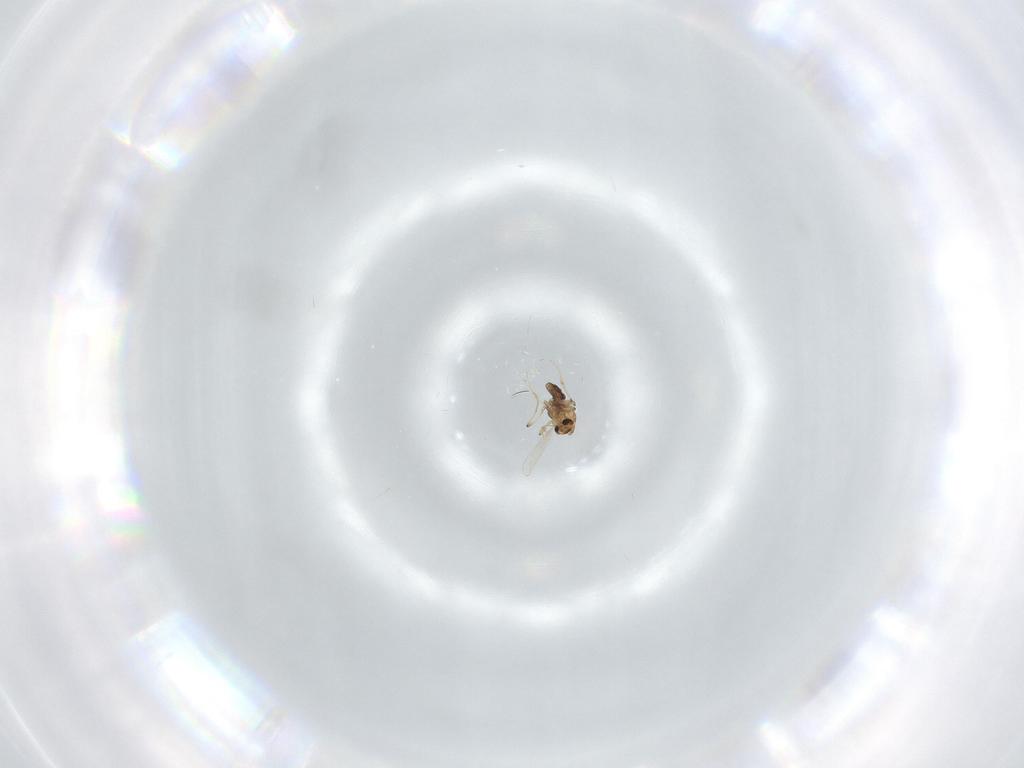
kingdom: Animalia
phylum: Arthropoda
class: Insecta
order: Diptera
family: Chironomidae
